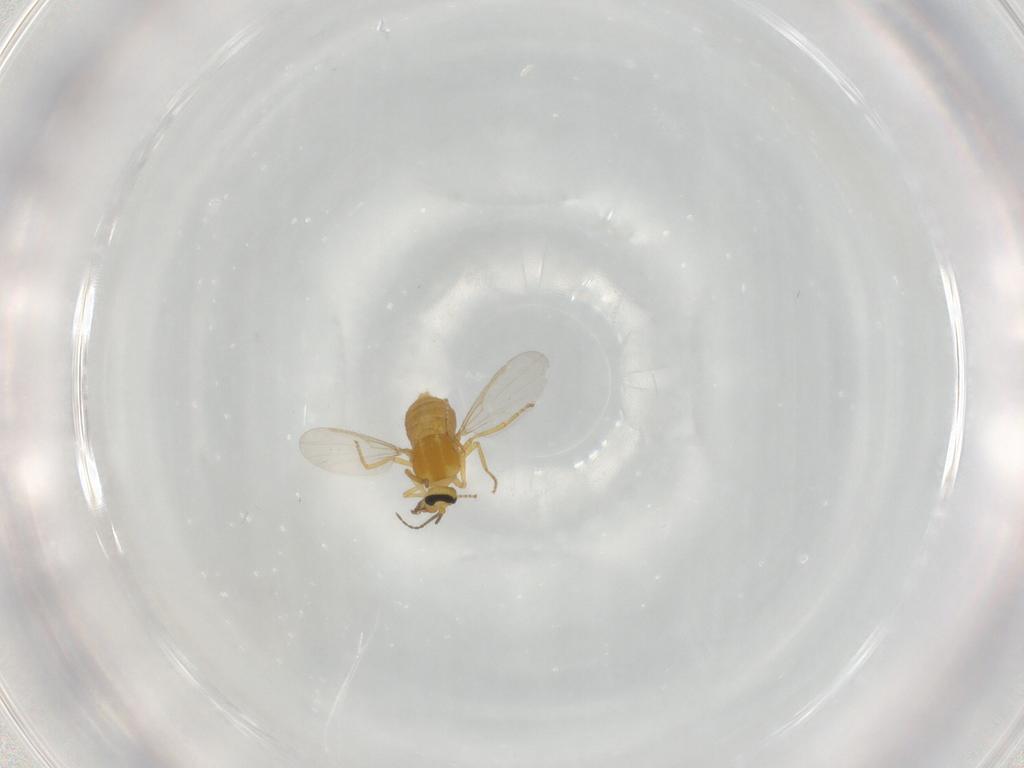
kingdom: Animalia
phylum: Arthropoda
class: Insecta
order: Diptera
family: Ceratopogonidae
